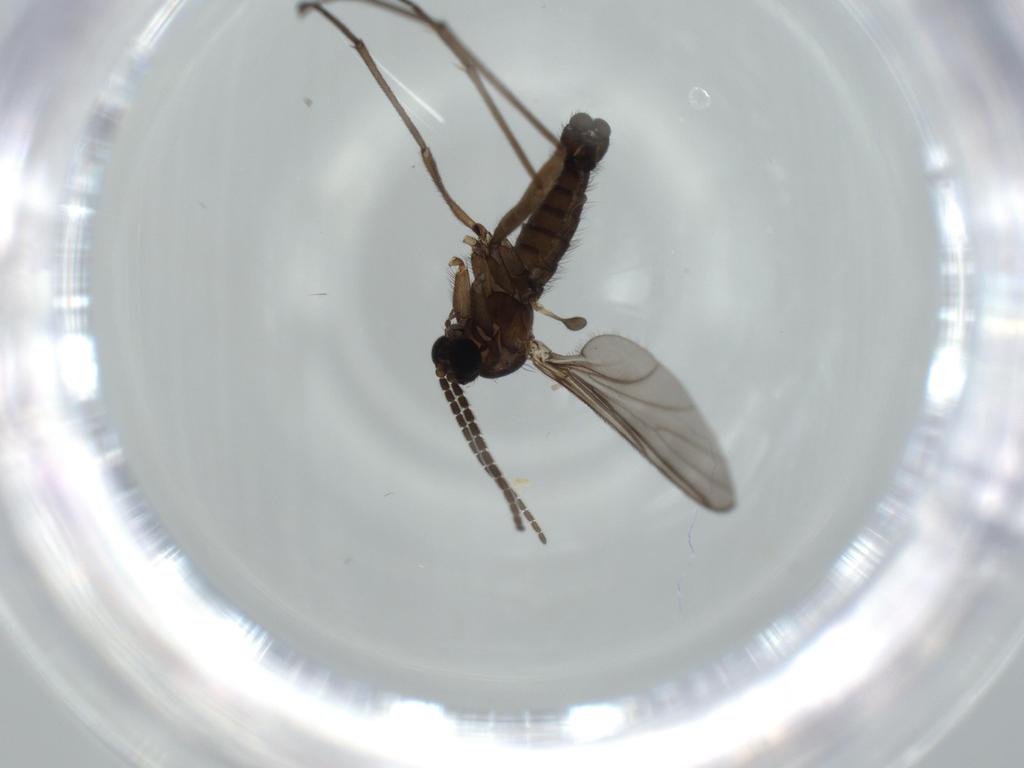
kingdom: Animalia
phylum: Arthropoda
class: Insecta
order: Diptera
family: Sciaridae
